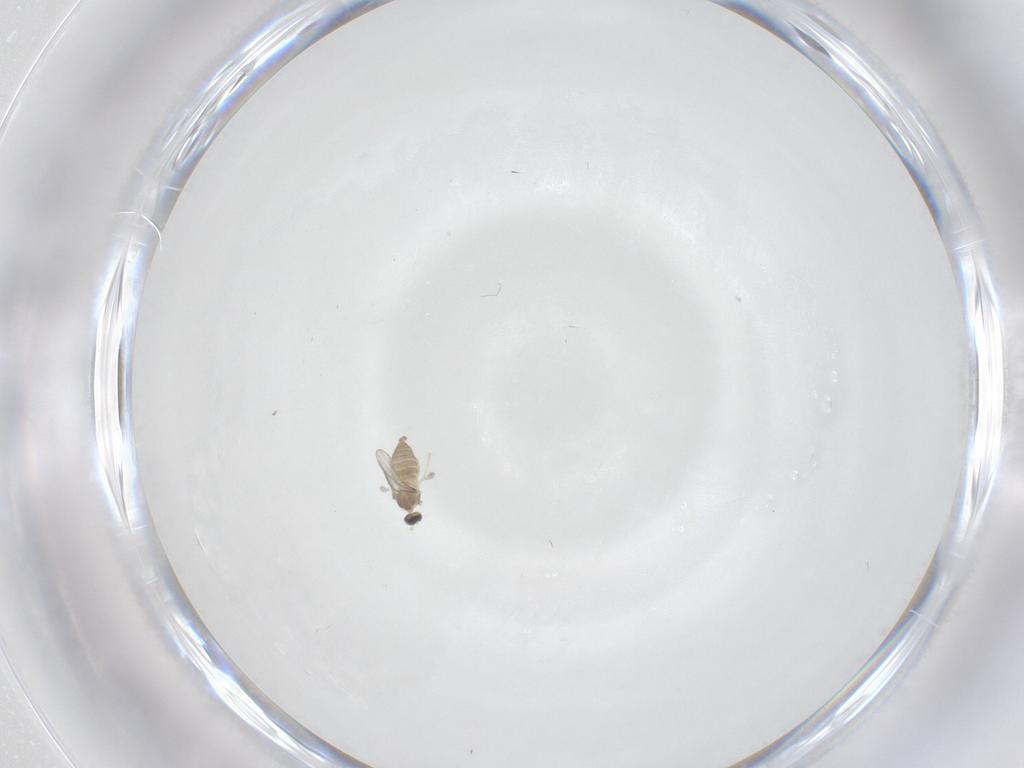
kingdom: Animalia
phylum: Arthropoda
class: Insecta
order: Diptera
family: Cecidomyiidae
